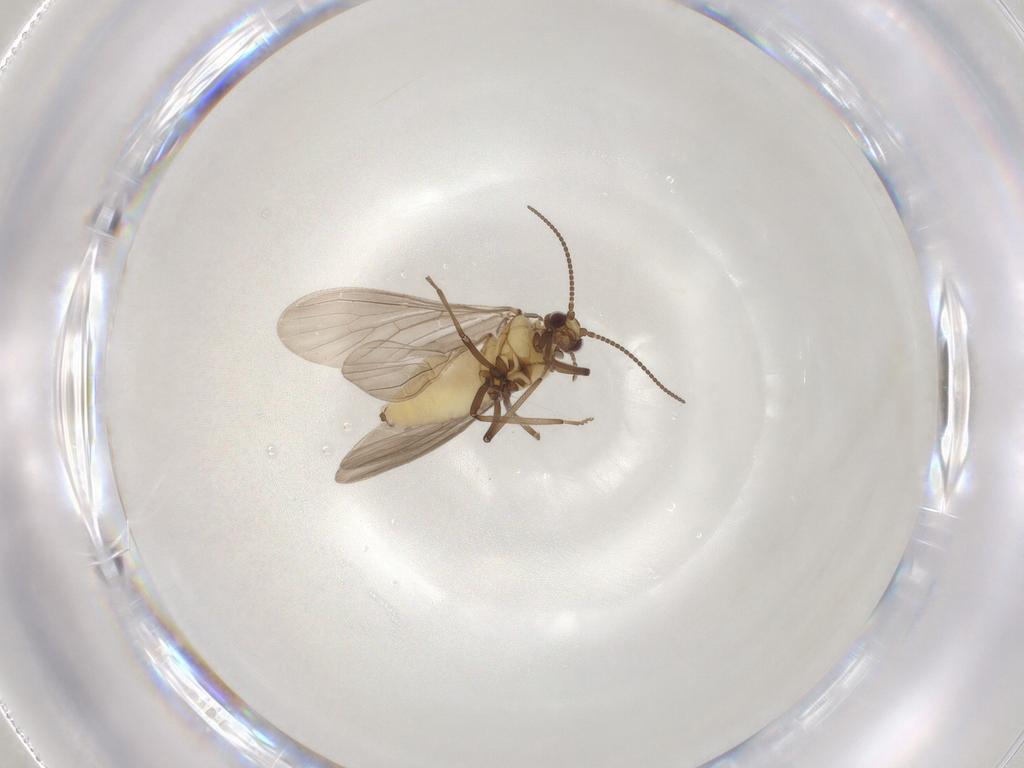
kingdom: Animalia
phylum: Arthropoda
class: Insecta
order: Neuroptera
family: Coniopterygidae
